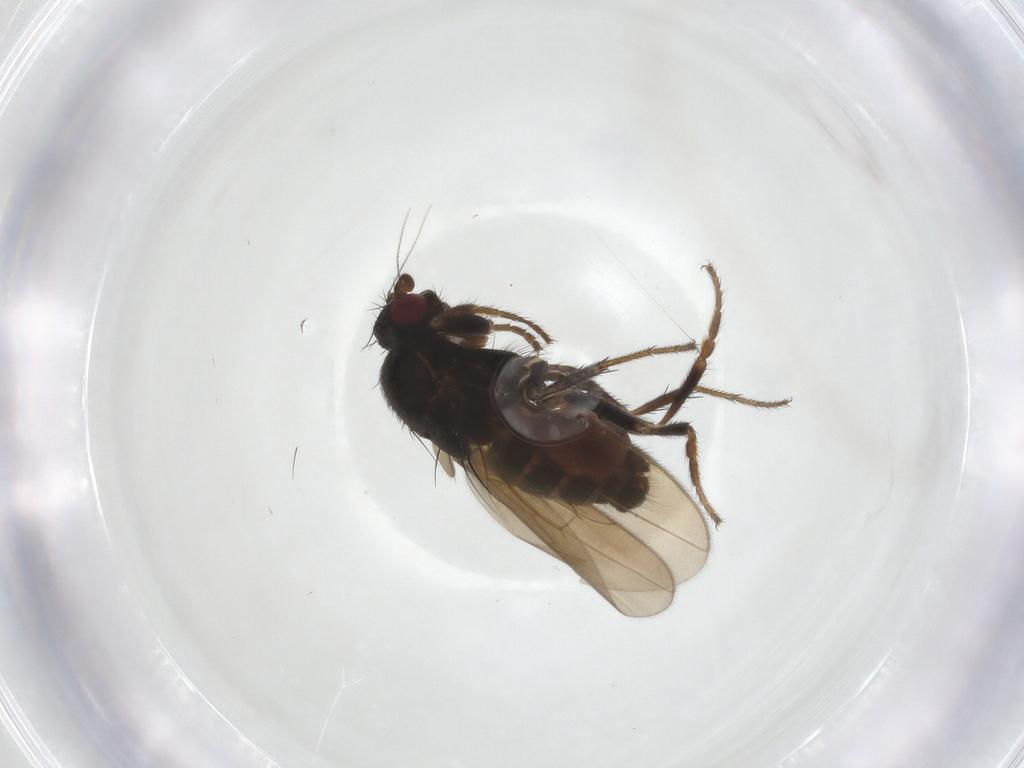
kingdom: Animalia
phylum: Arthropoda
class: Insecta
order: Diptera
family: Sphaeroceridae
